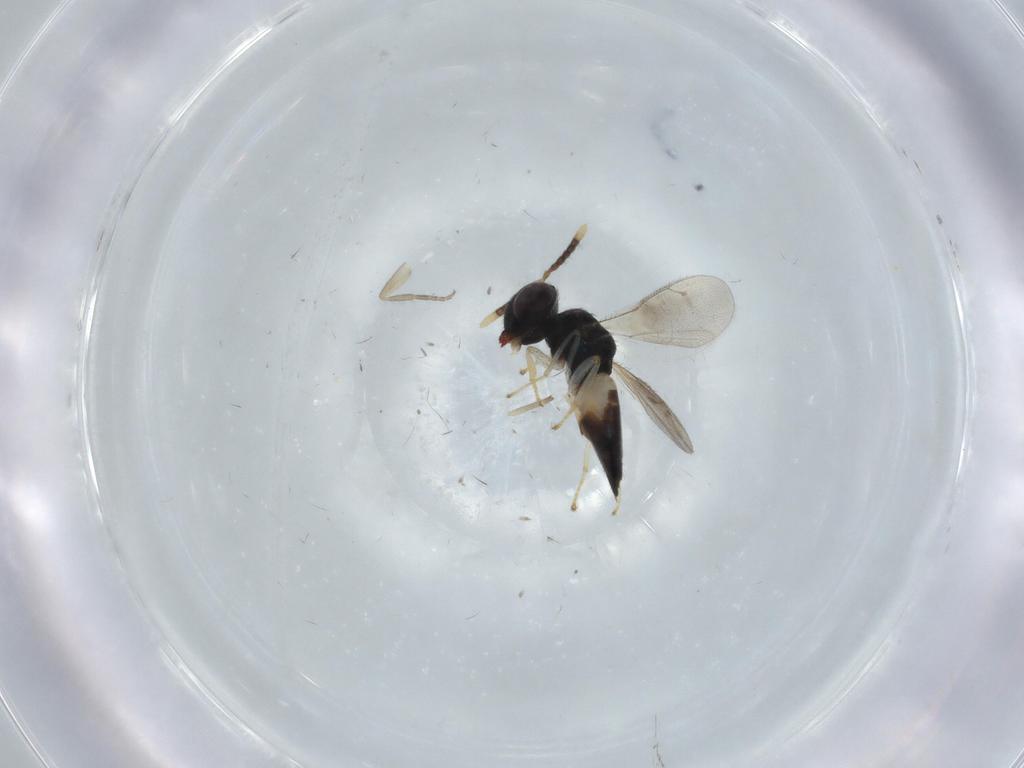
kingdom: Animalia
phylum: Arthropoda
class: Insecta
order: Hymenoptera
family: Pteromalidae
